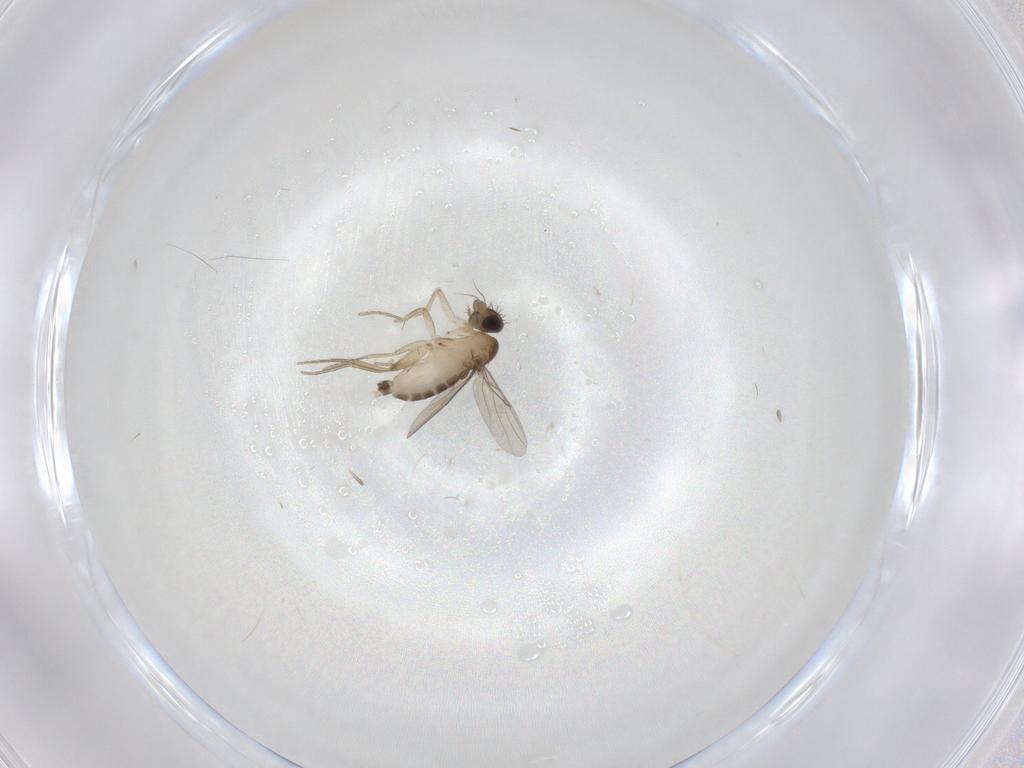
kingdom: Animalia
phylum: Arthropoda
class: Insecta
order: Diptera
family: Phoridae
